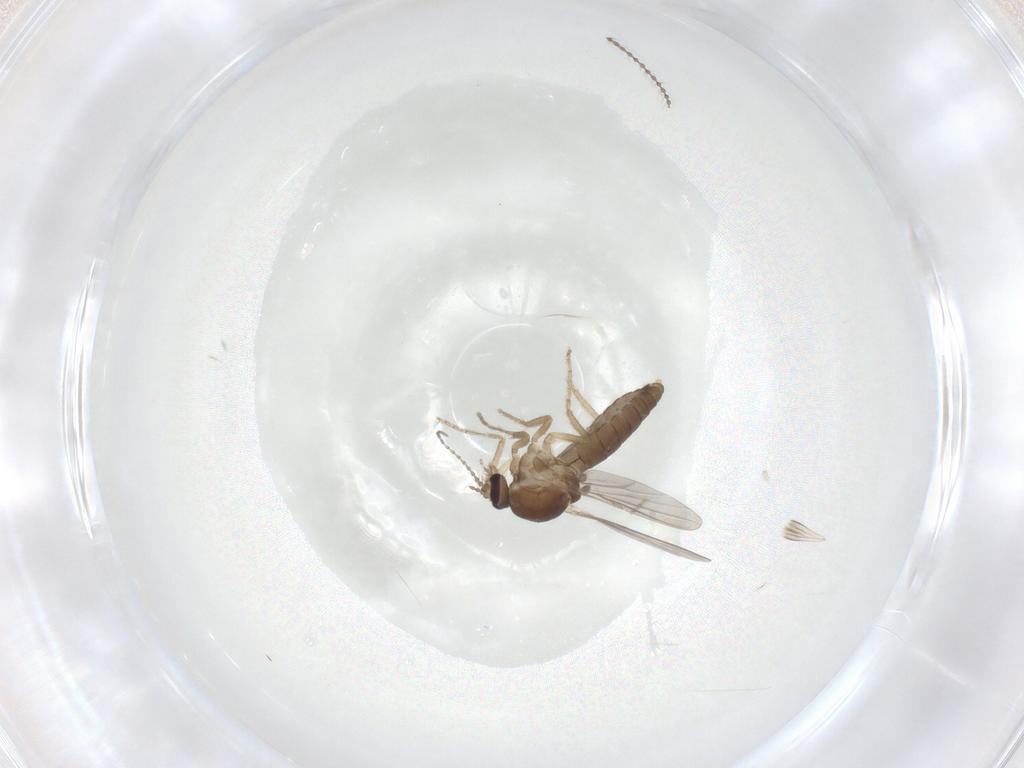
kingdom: Animalia
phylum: Arthropoda
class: Insecta
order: Diptera
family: Ceratopogonidae
